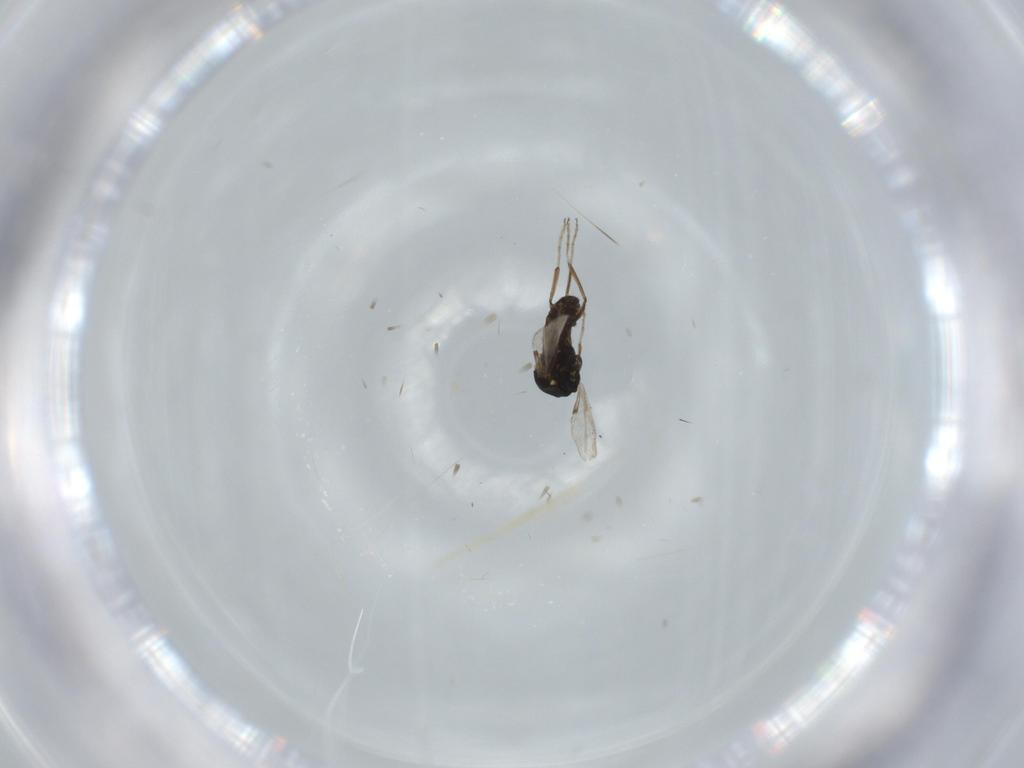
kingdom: Animalia
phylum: Arthropoda
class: Insecta
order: Diptera
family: Ceratopogonidae
